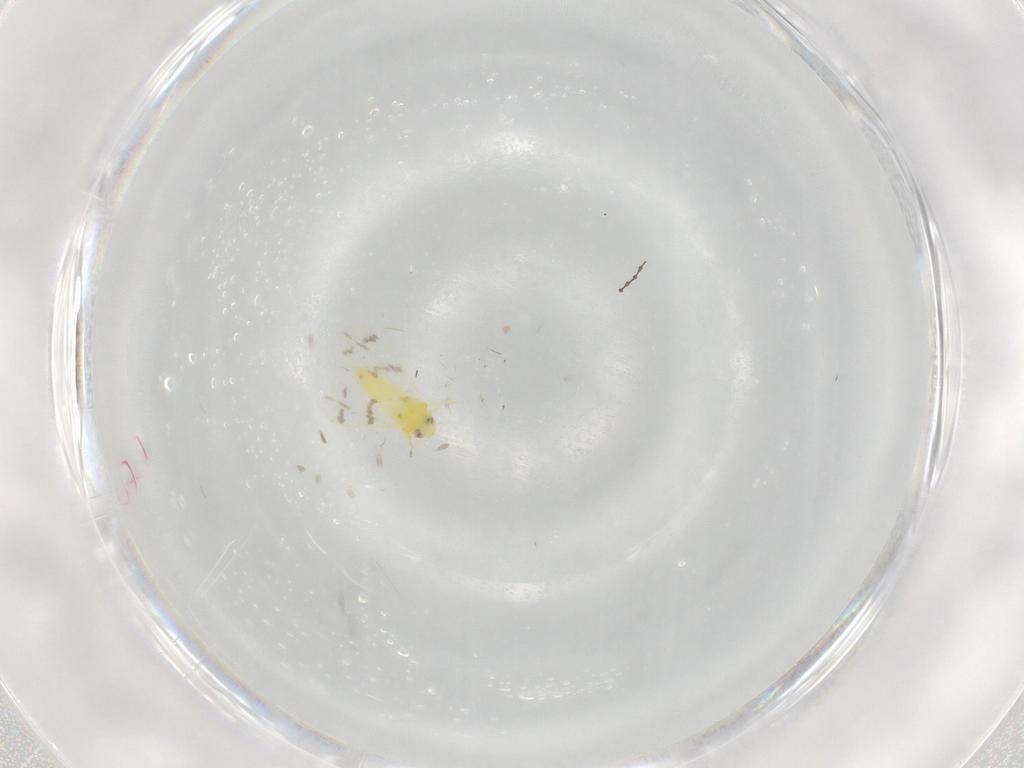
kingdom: Animalia
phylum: Arthropoda
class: Insecta
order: Hemiptera
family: Aleyrodidae
